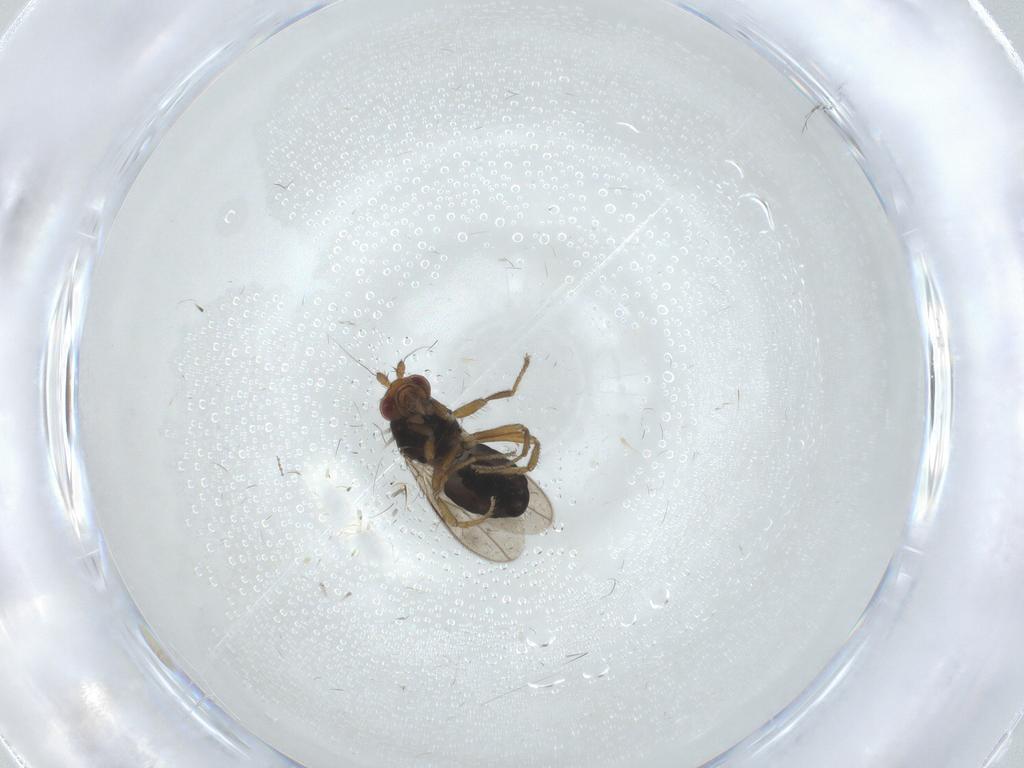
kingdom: Animalia
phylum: Arthropoda
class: Insecta
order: Diptera
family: Sphaeroceridae
